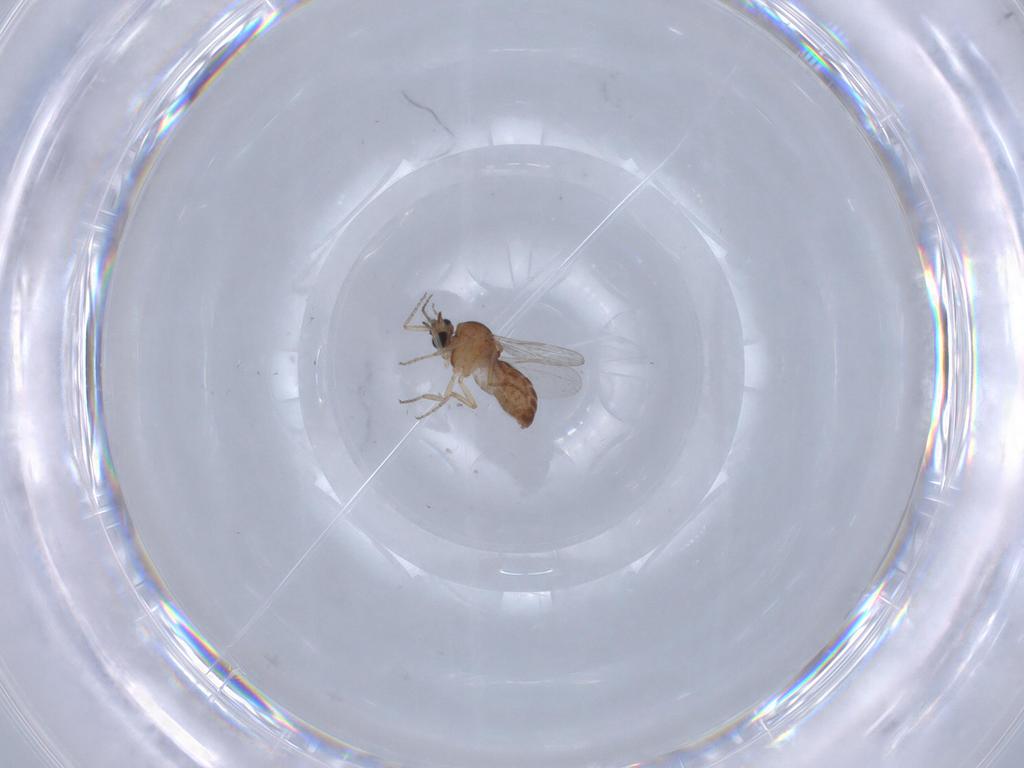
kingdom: Animalia
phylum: Arthropoda
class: Insecta
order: Diptera
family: Ceratopogonidae
